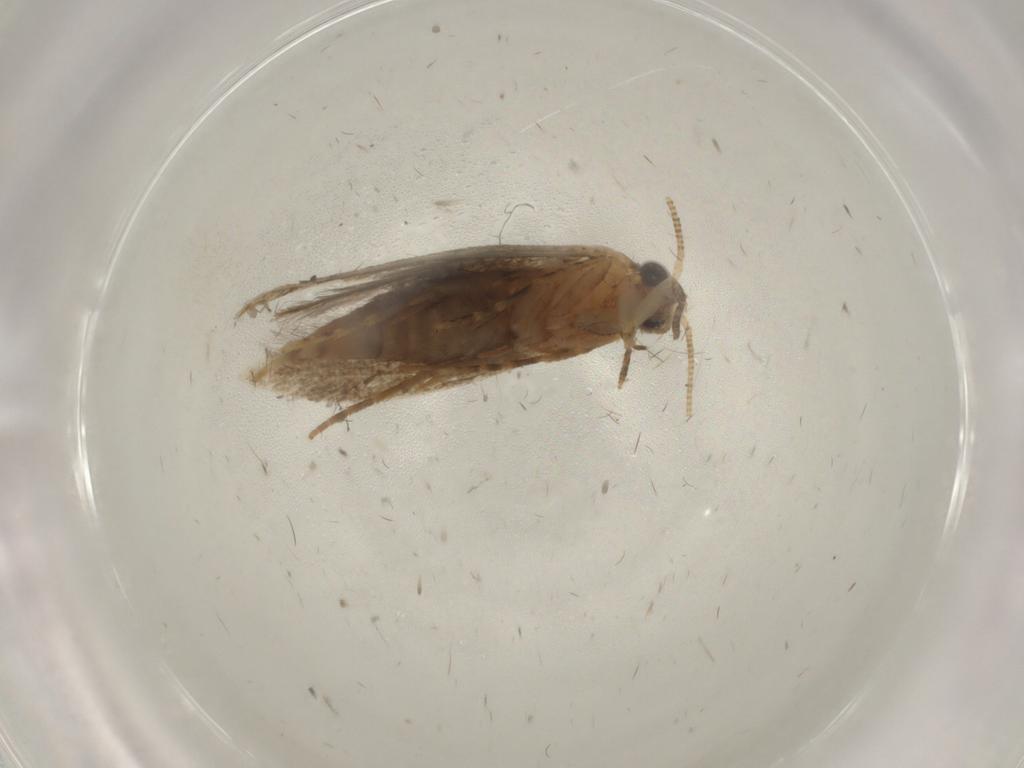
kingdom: Animalia
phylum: Arthropoda
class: Insecta
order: Lepidoptera
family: Tineidae
